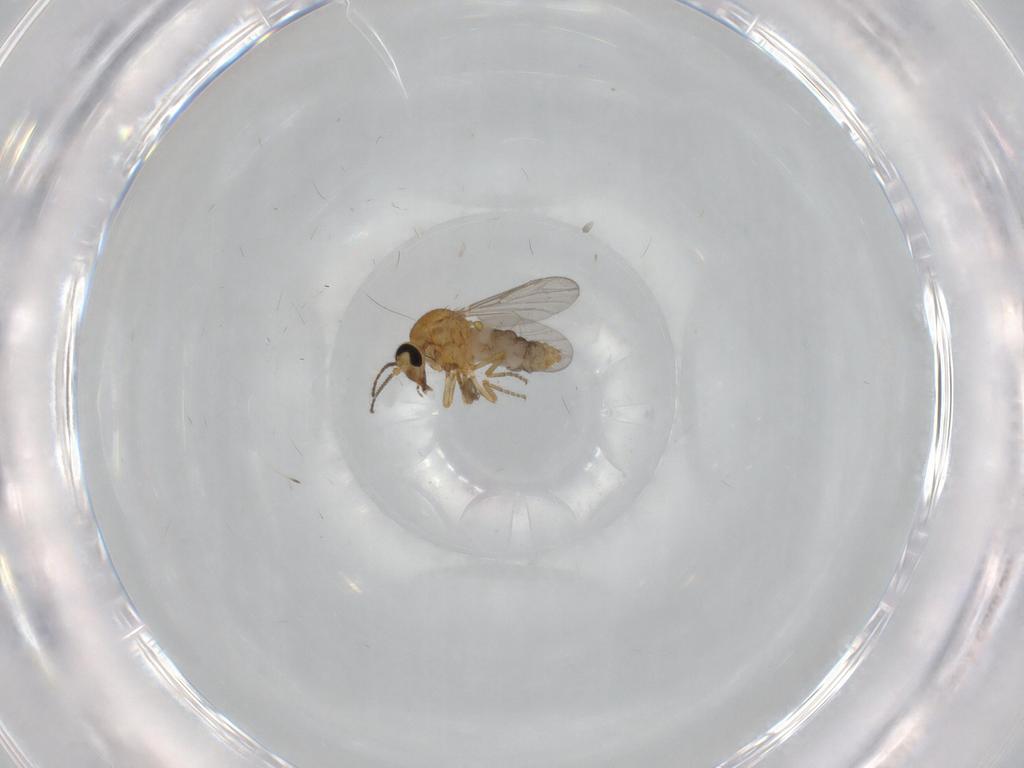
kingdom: Animalia
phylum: Arthropoda
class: Insecta
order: Diptera
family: Ceratopogonidae
